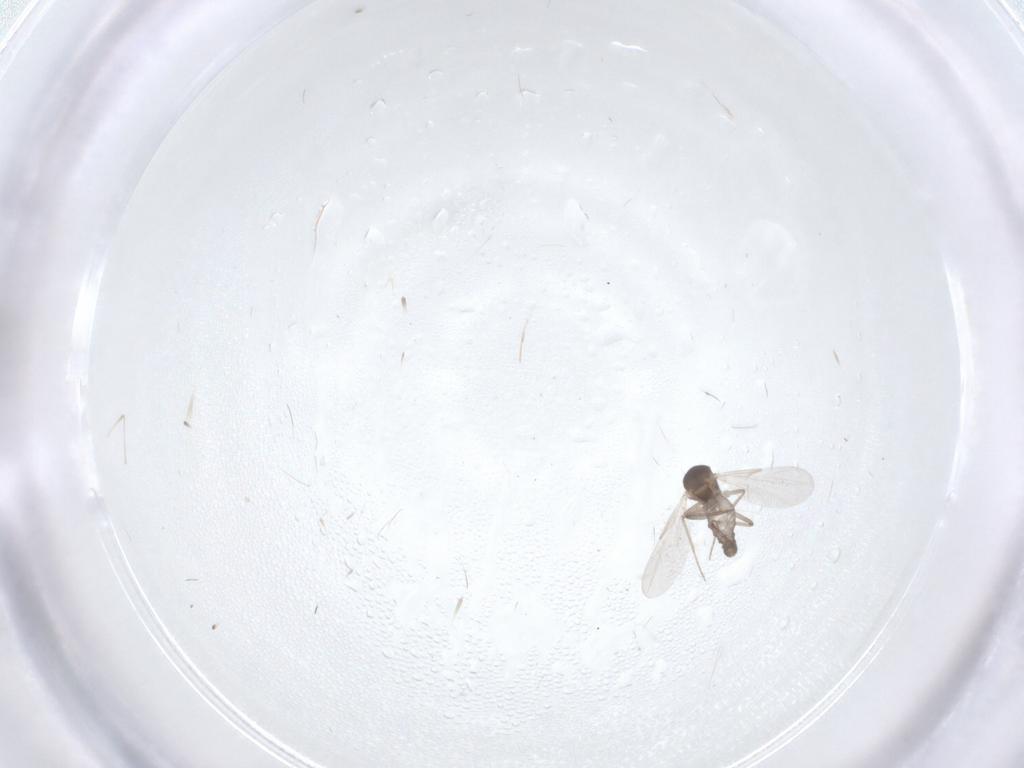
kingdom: Animalia
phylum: Arthropoda
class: Insecta
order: Diptera
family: Cecidomyiidae
